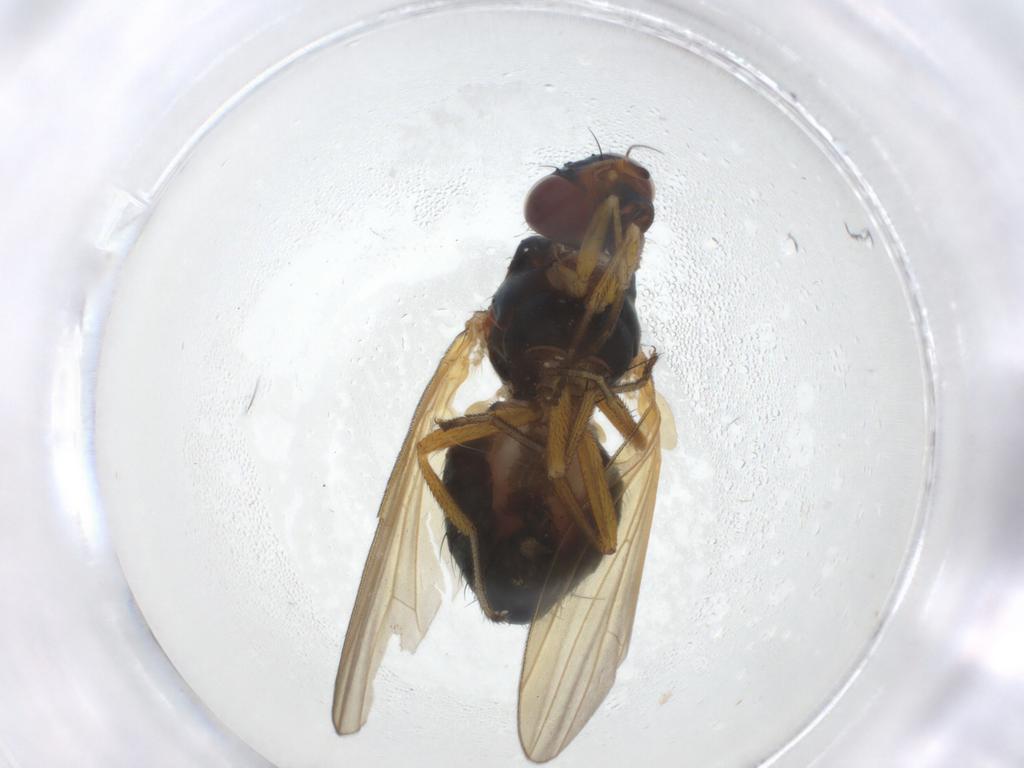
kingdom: Animalia
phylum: Arthropoda
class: Insecta
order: Diptera
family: Lauxaniidae
